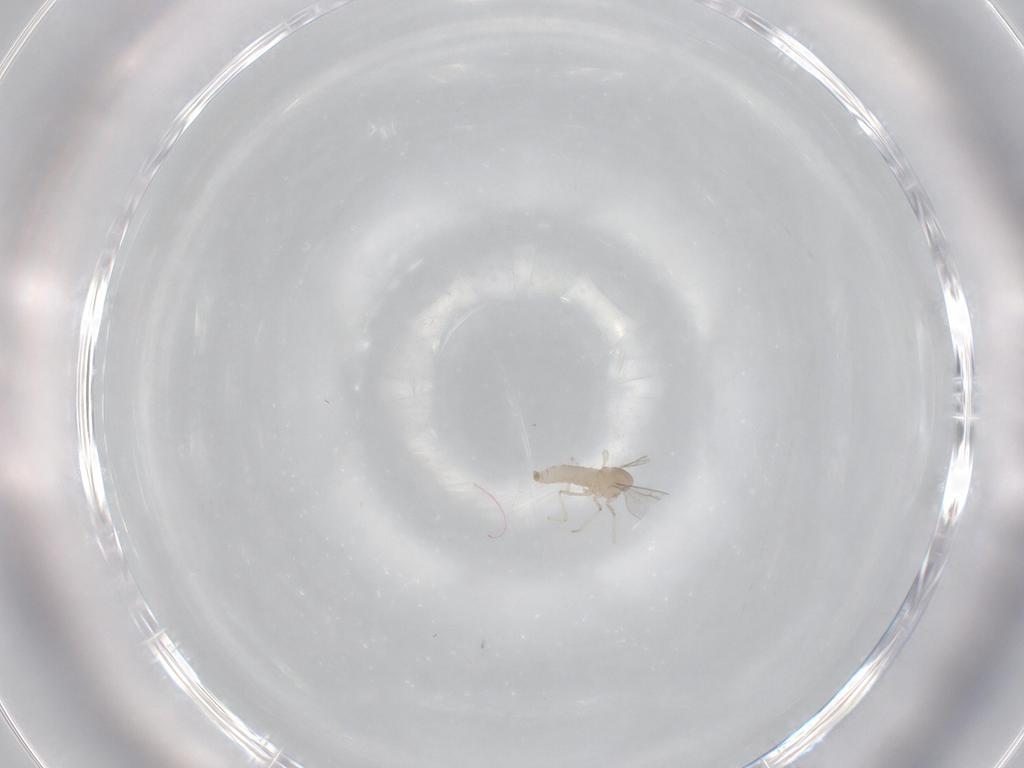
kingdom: Animalia
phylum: Arthropoda
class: Insecta
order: Diptera
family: Cecidomyiidae
